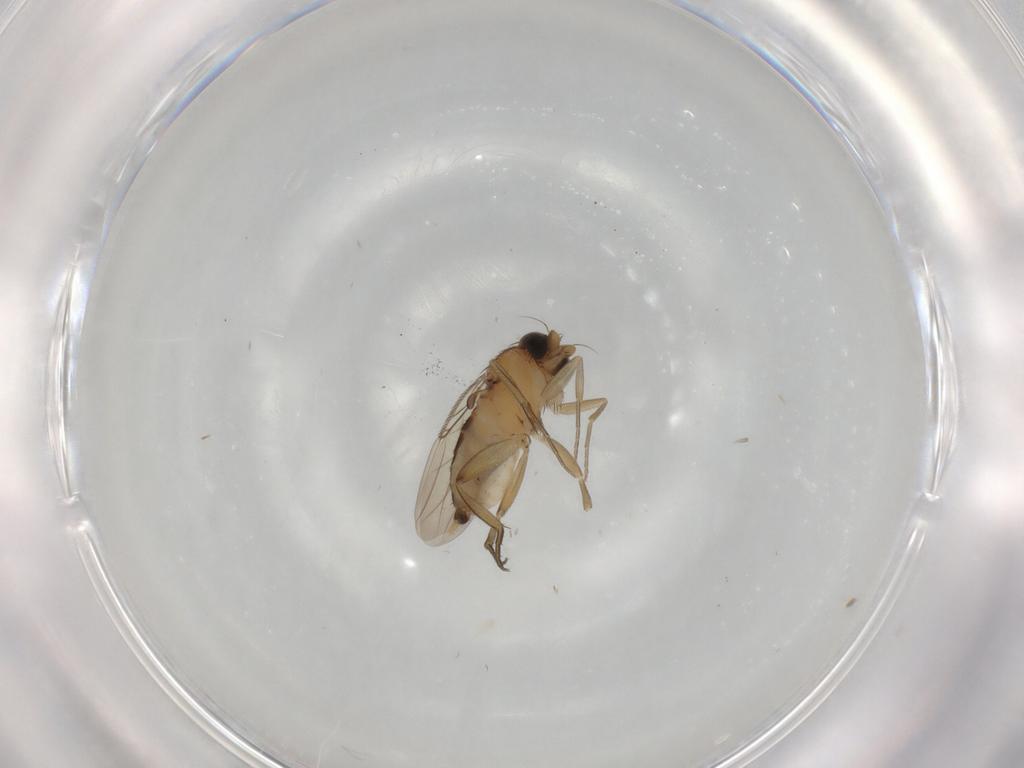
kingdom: Animalia
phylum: Arthropoda
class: Insecta
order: Diptera
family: Phoridae
